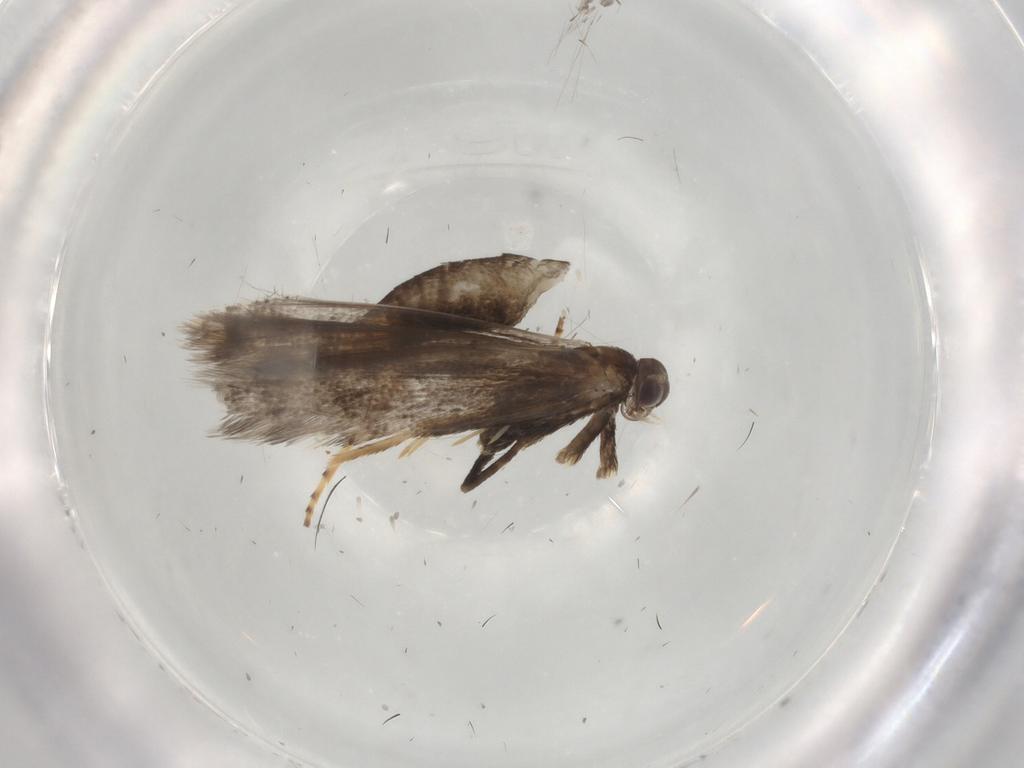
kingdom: Animalia
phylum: Arthropoda
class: Insecta
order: Lepidoptera
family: Gracillariidae
